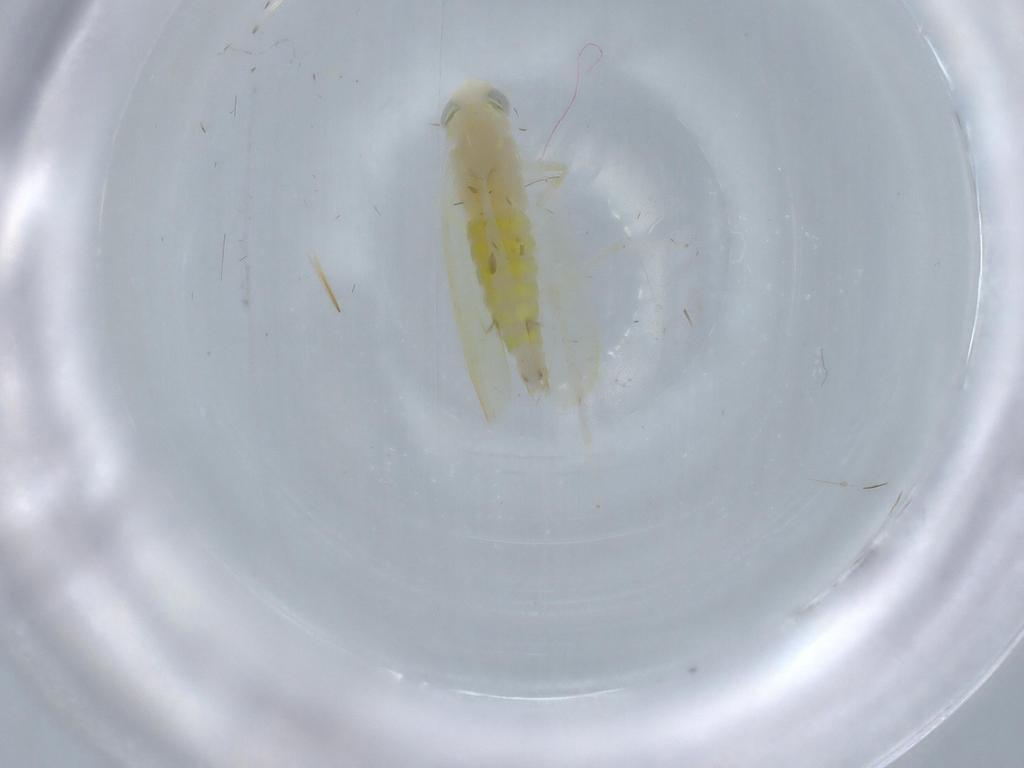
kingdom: Animalia
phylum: Arthropoda
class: Insecta
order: Hemiptera
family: Cicadellidae
